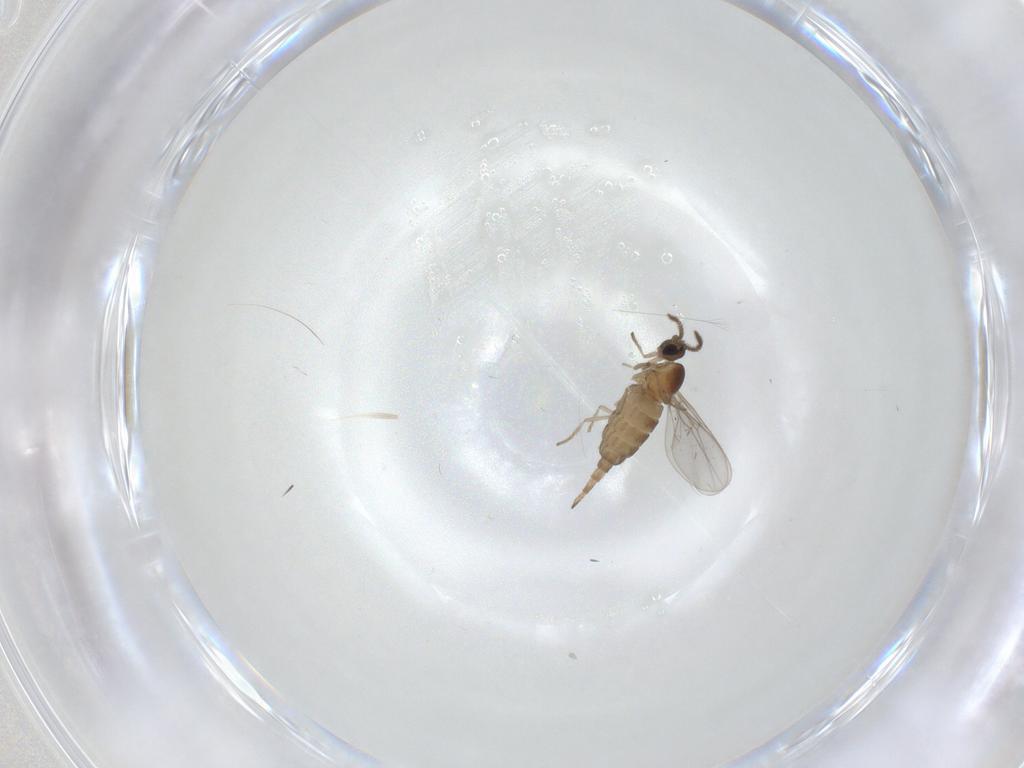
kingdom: Animalia
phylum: Arthropoda
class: Insecta
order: Diptera
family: Cecidomyiidae
